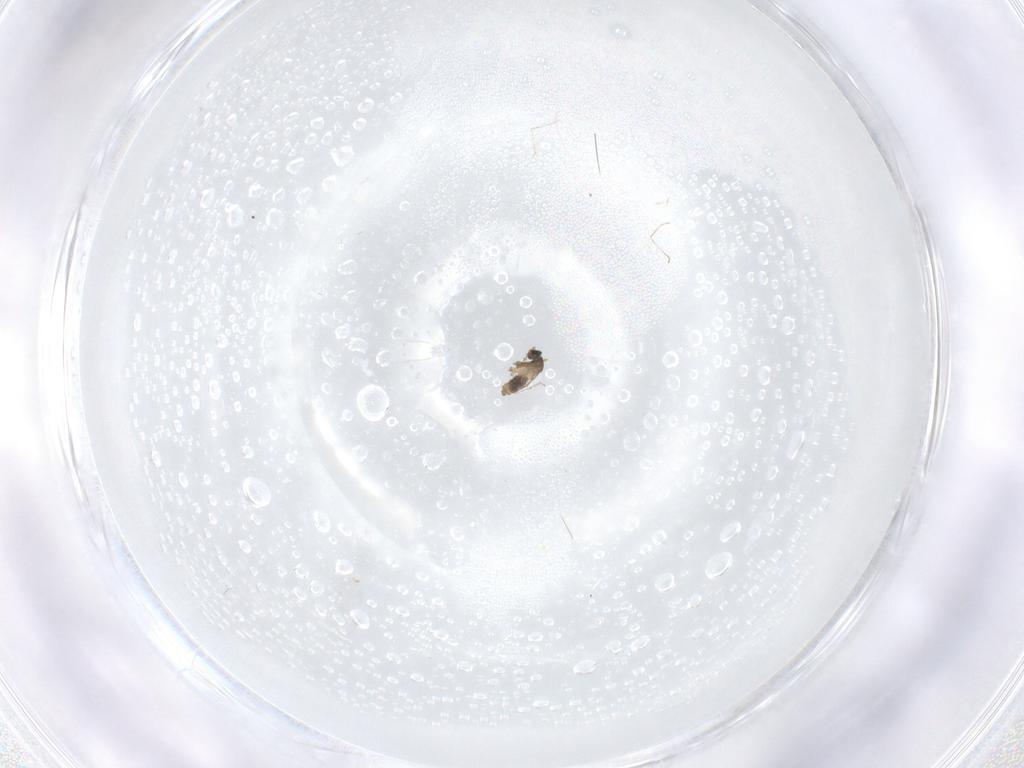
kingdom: Animalia
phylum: Arthropoda
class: Insecta
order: Diptera
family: Cecidomyiidae
